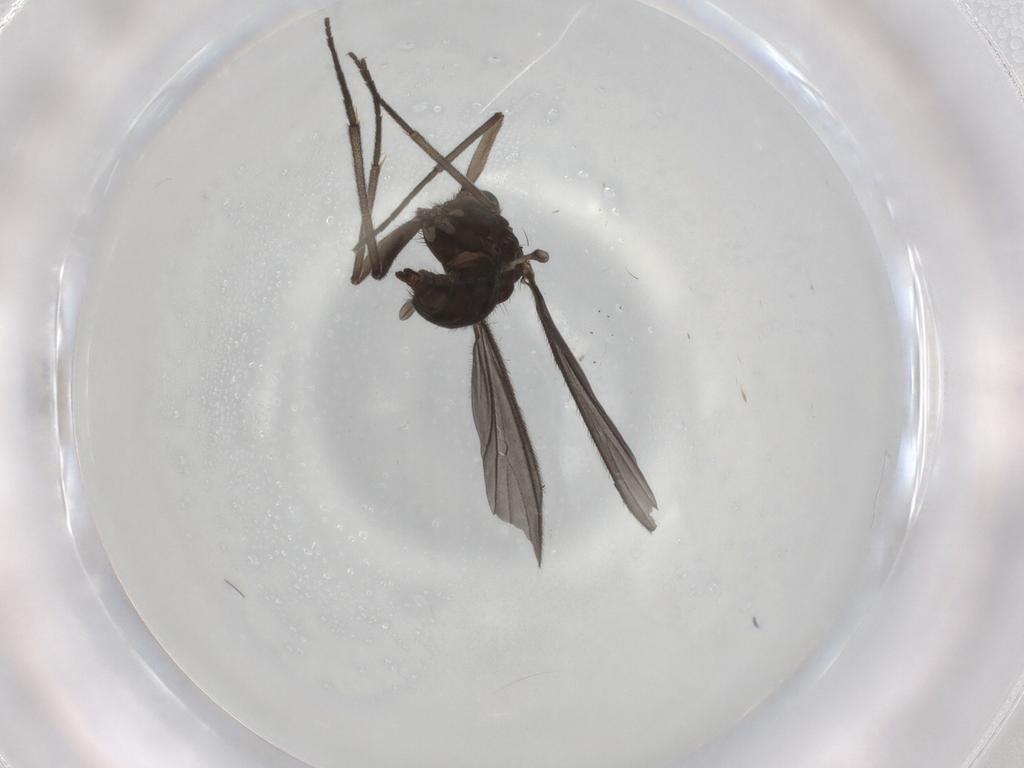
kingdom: Animalia
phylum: Arthropoda
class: Insecta
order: Diptera
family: Sciaridae
